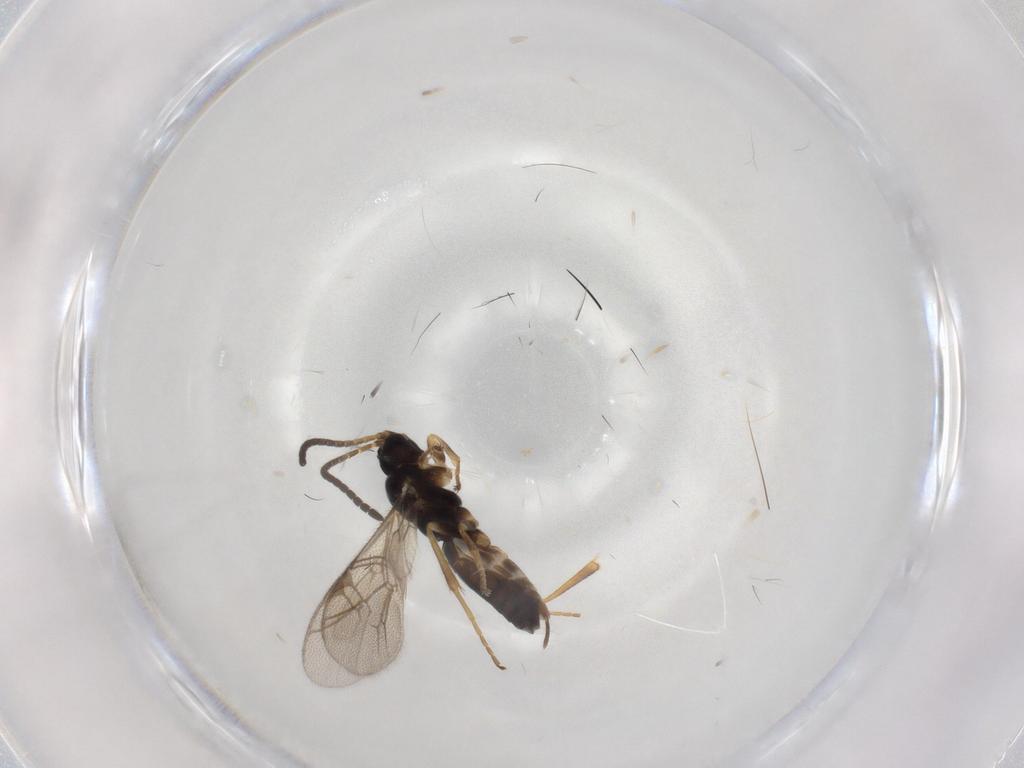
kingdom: Animalia
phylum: Arthropoda
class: Insecta
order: Hymenoptera
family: Ichneumonidae
